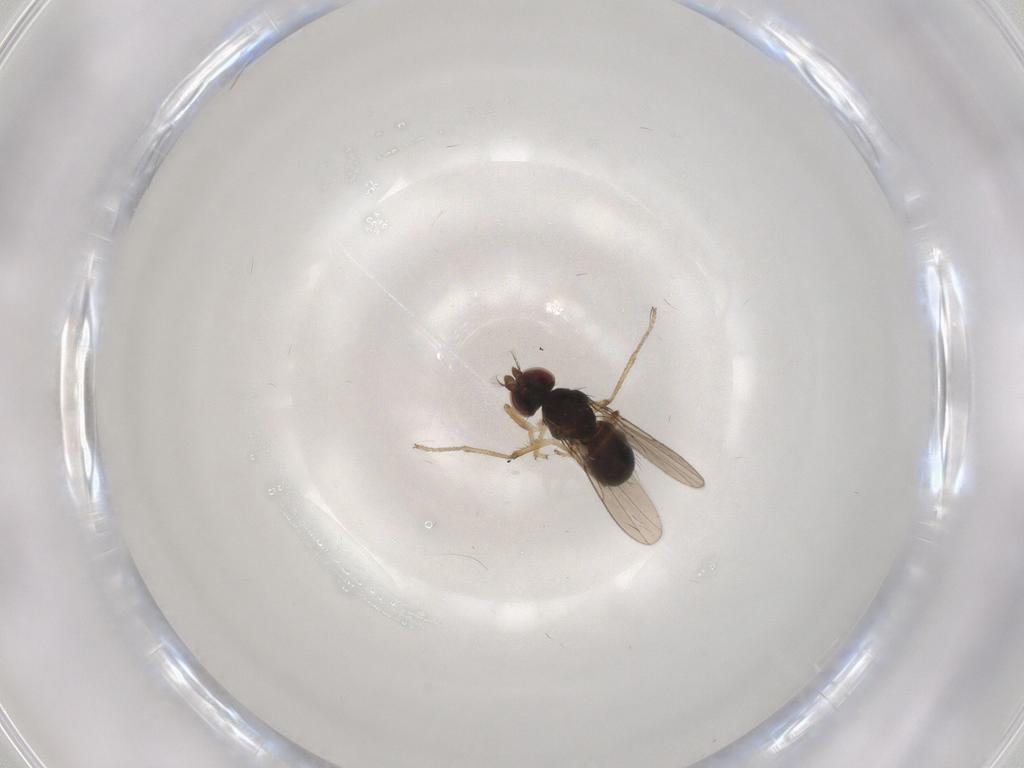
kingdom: Animalia
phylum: Arthropoda
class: Insecta
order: Diptera
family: Ephydridae
